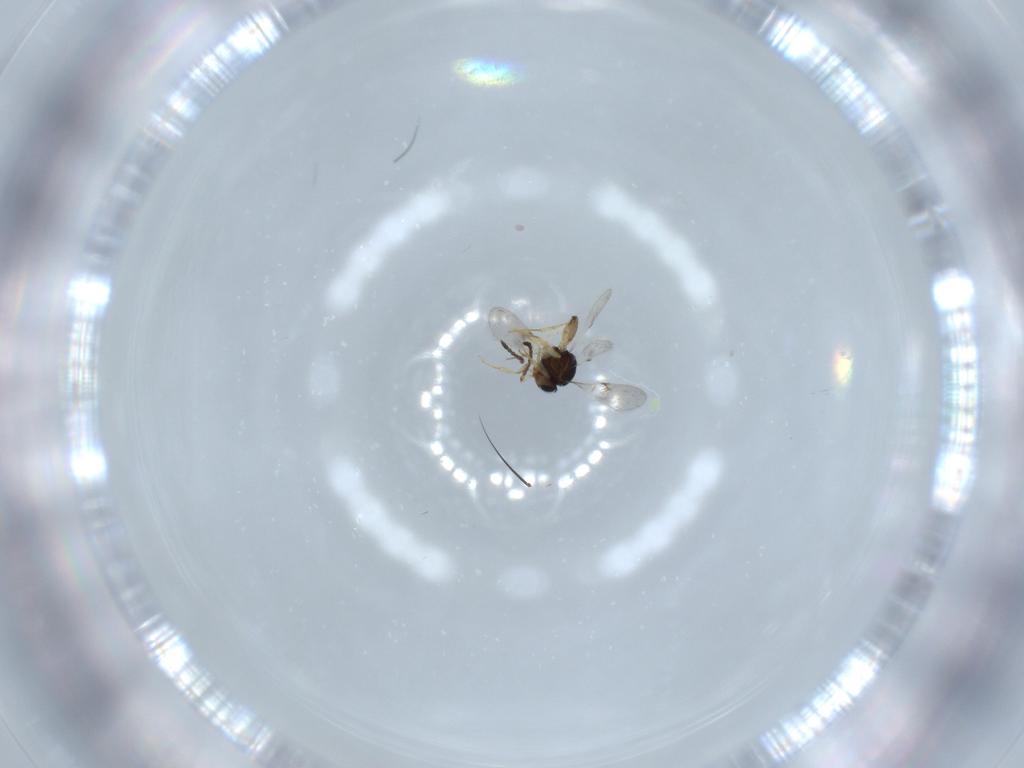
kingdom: Animalia
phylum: Arthropoda
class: Insecta
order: Hymenoptera
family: Scelionidae
